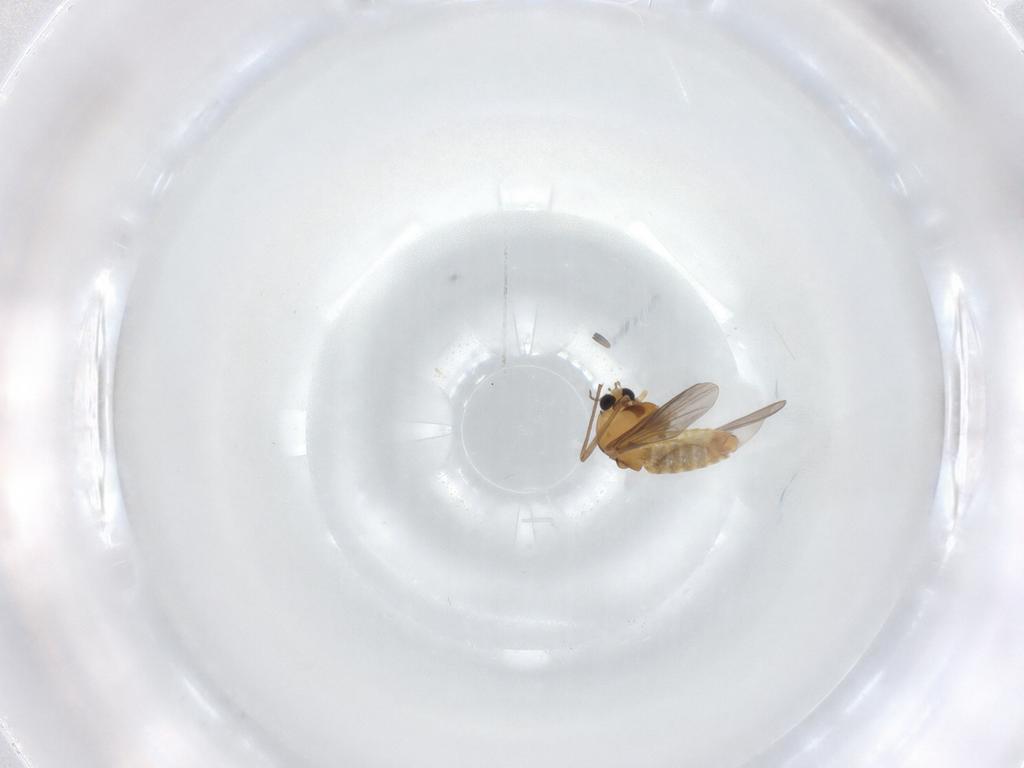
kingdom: Animalia
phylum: Arthropoda
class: Insecta
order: Diptera
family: Chironomidae
